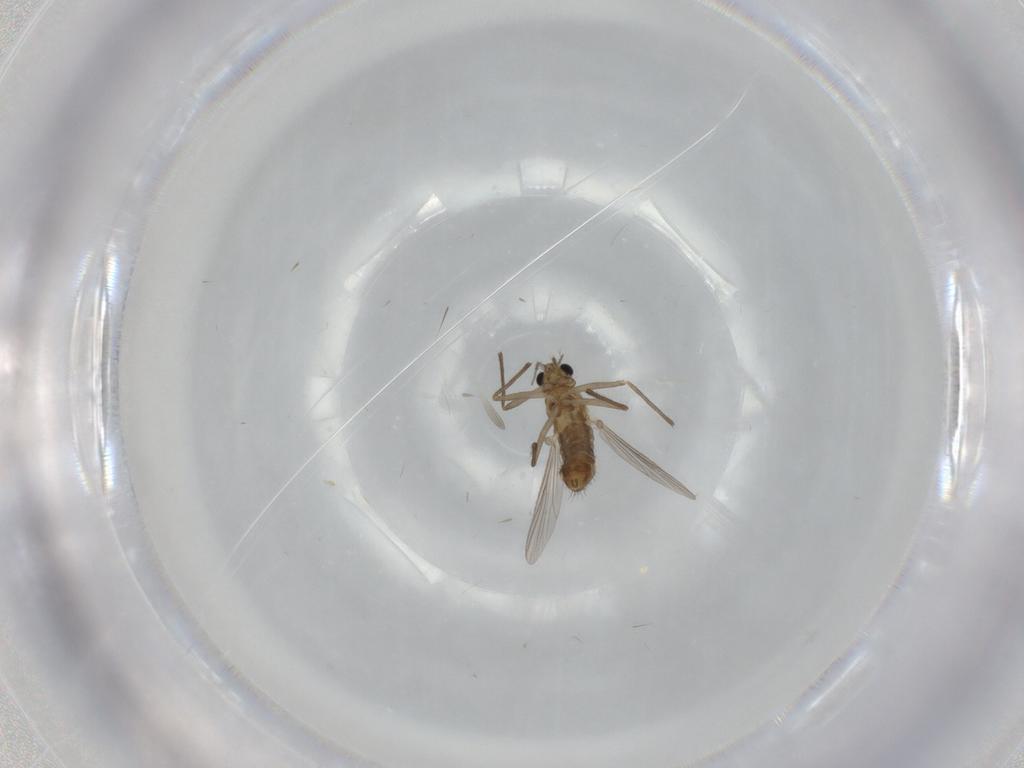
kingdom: Animalia
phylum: Arthropoda
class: Insecta
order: Diptera
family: Chironomidae
